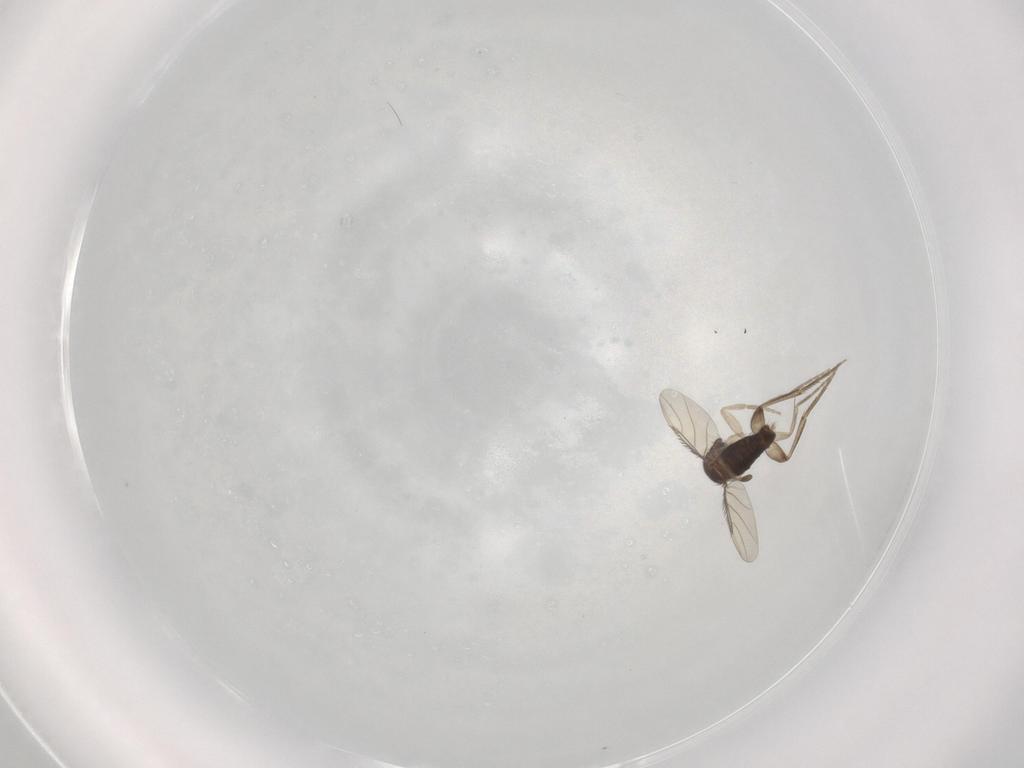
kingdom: Animalia
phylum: Arthropoda
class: Insecta
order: Diptera
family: Phoridae
